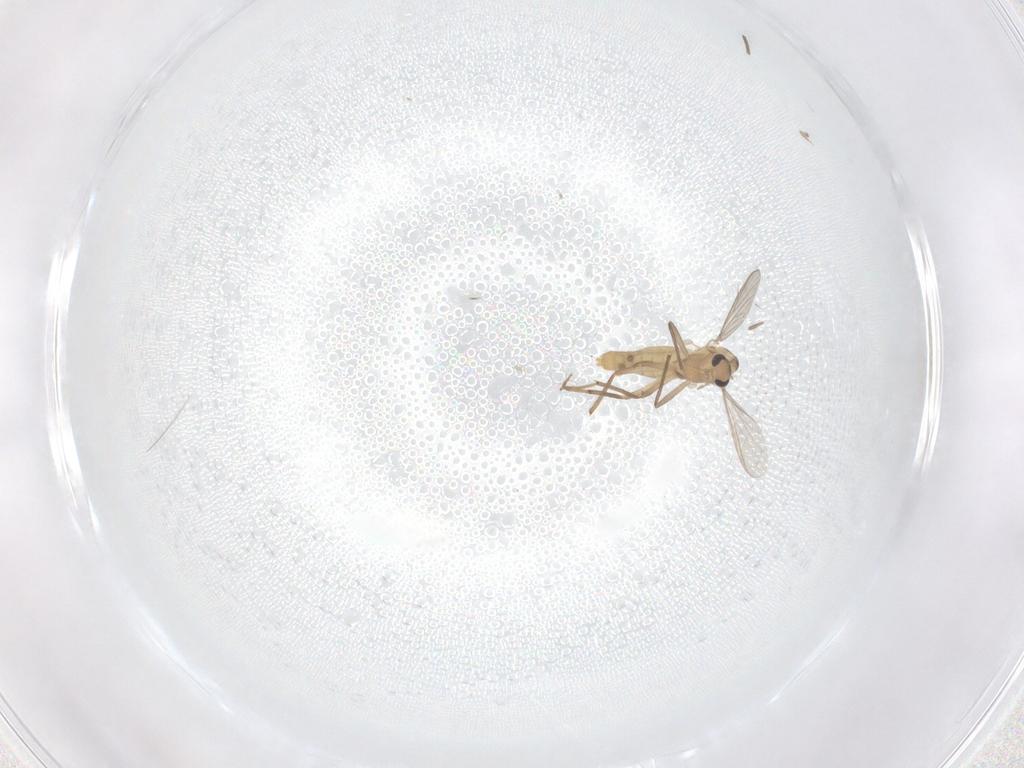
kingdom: Animalia
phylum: Arthropoda
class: Insecta
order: Diptera
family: Chironomidae
